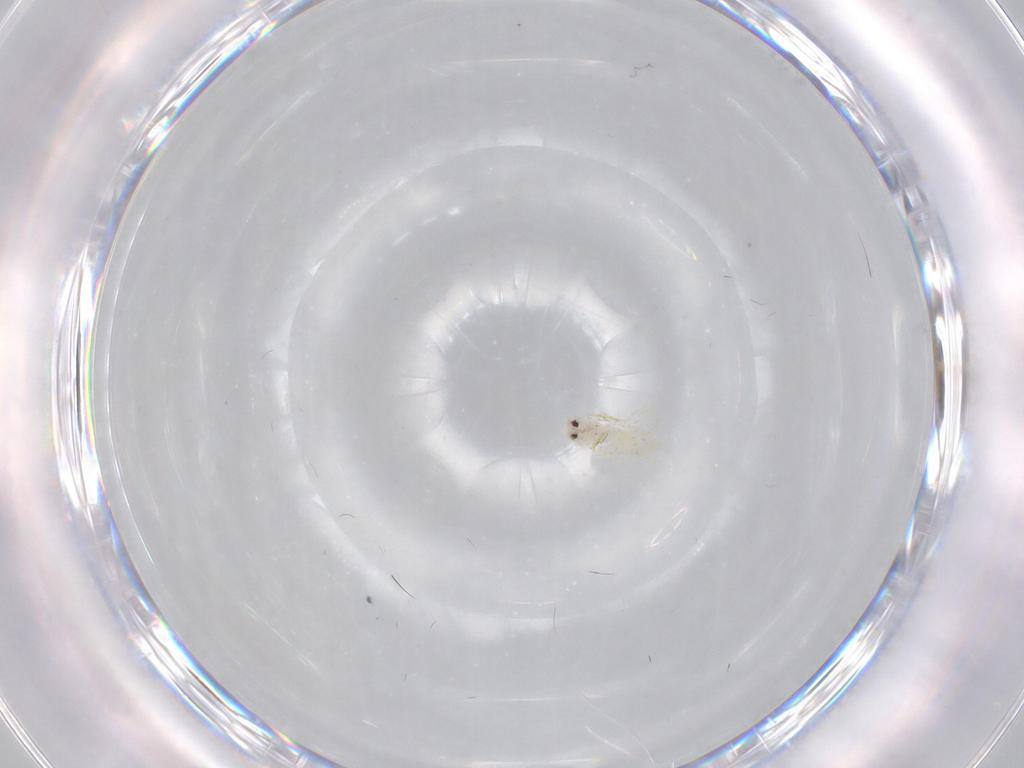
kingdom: Animalia
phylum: Arthropoda
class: Insecta
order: Hemiptera
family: Aleyrodidae
